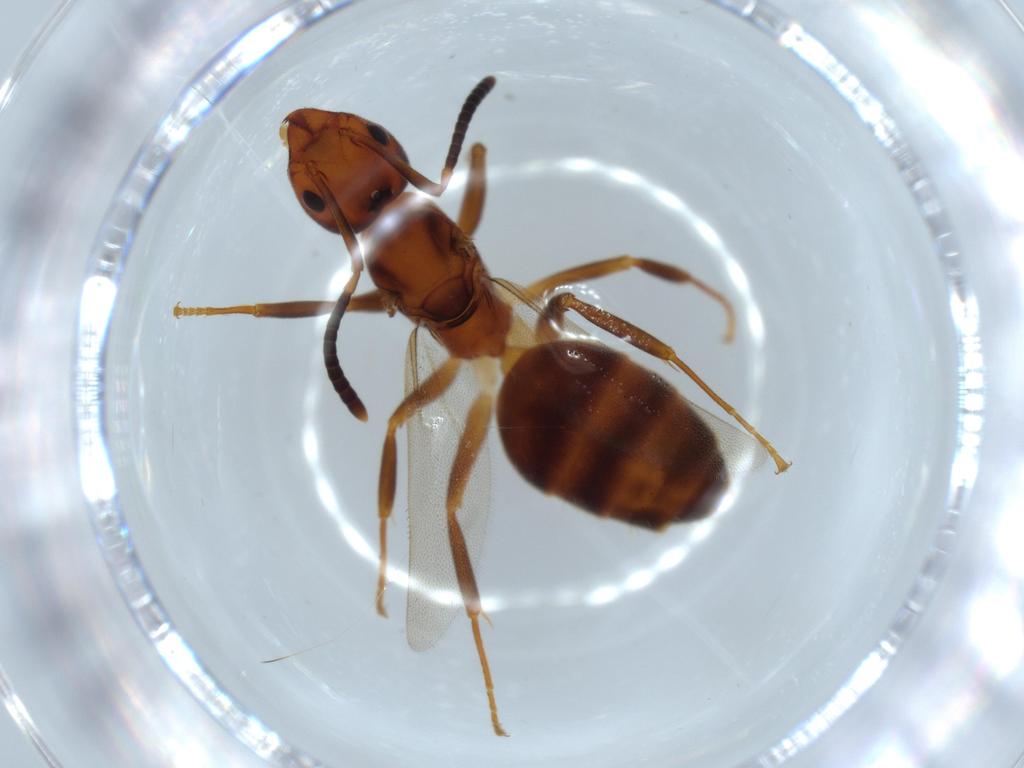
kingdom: Animalia
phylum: Arthropoda
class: Insecta
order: Hymenoptera
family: Formicidae
